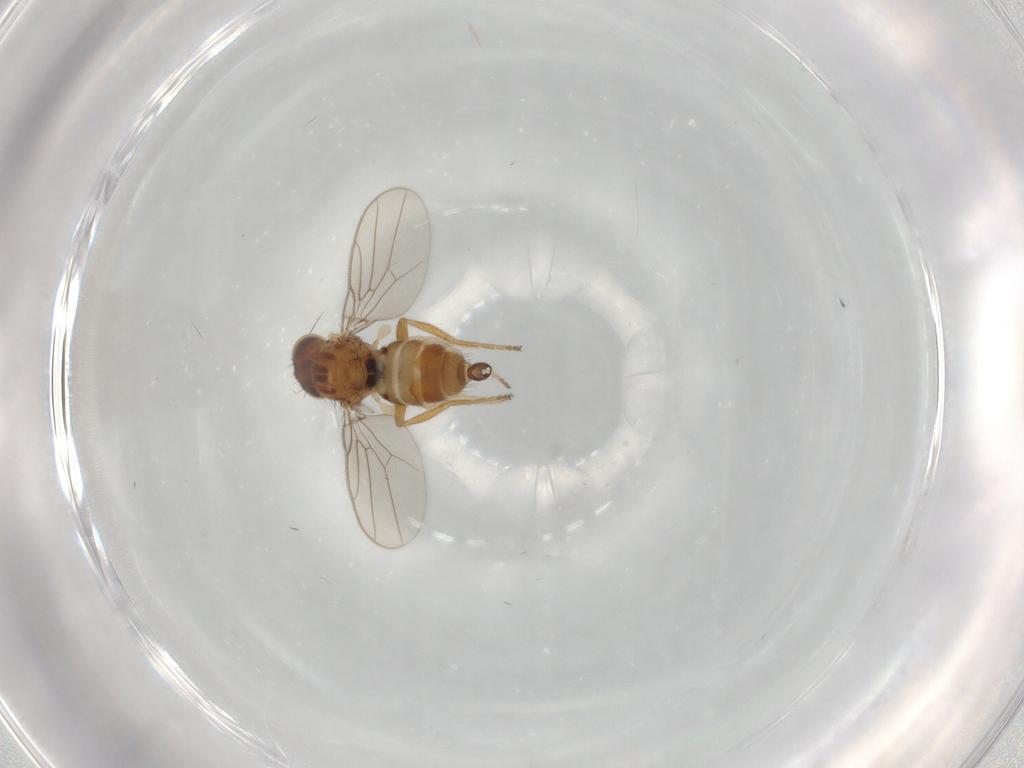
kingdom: Animalia
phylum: Arthropoda
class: Insecta
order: Diptera
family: Chloropidae
